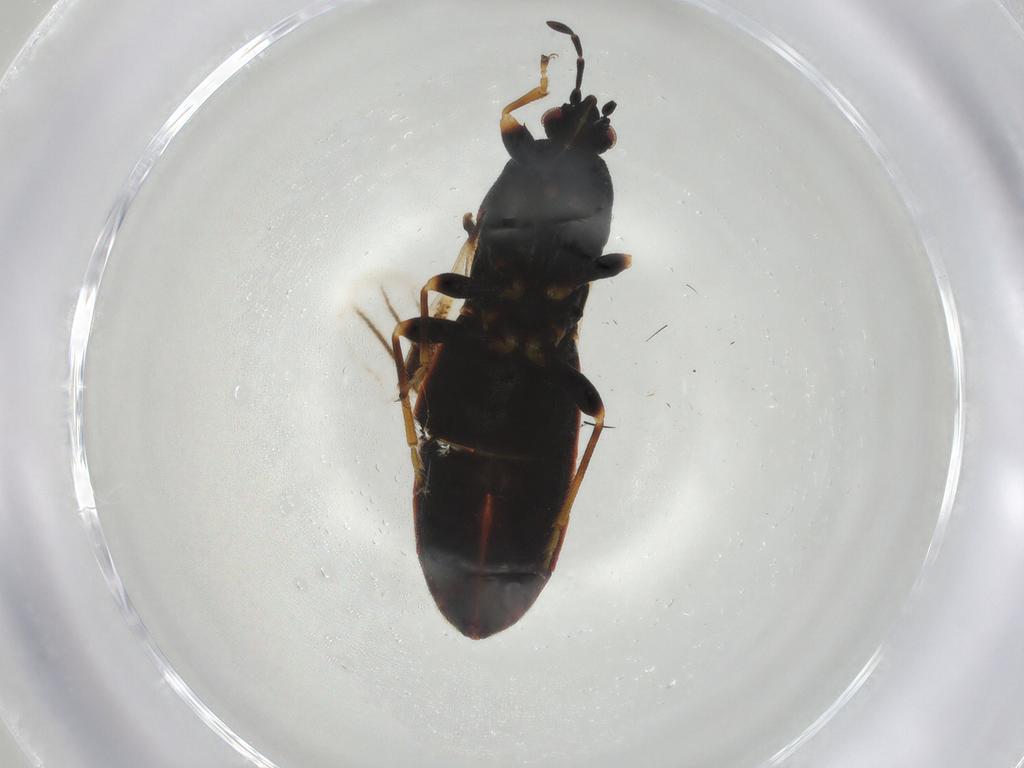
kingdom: Animalia
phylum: Arthropoda
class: Insecta
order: Hemiptera
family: Blissidae
